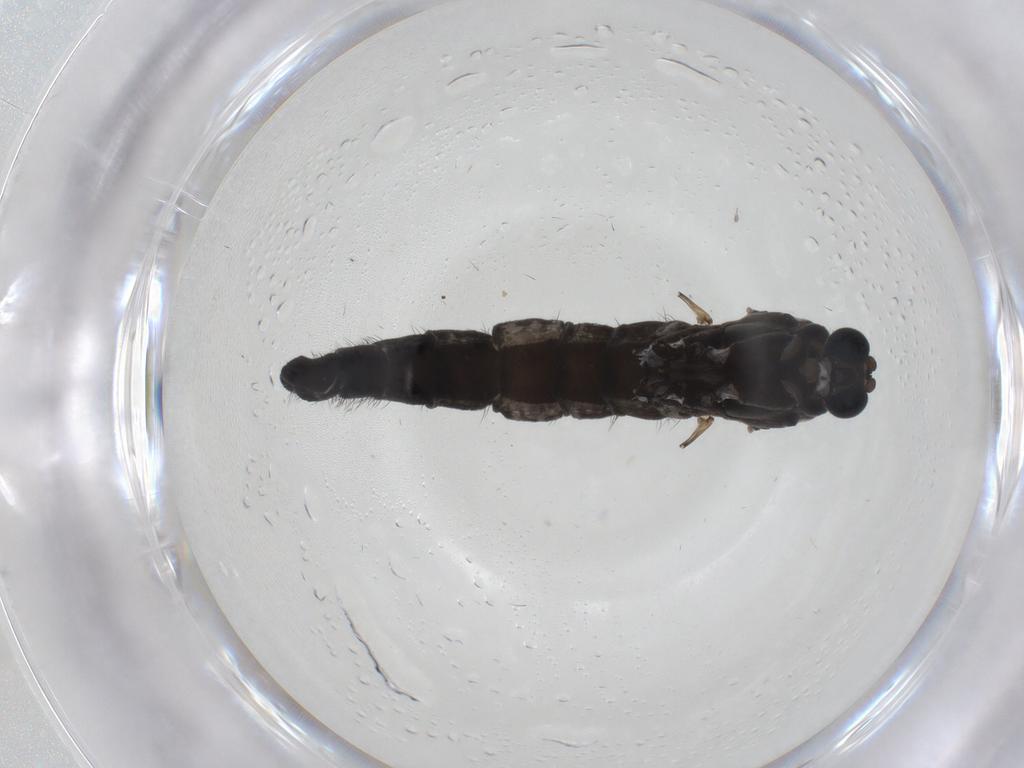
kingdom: Animalia
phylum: Arthropoda
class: Insecta
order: Diptera
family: Sciaridae
